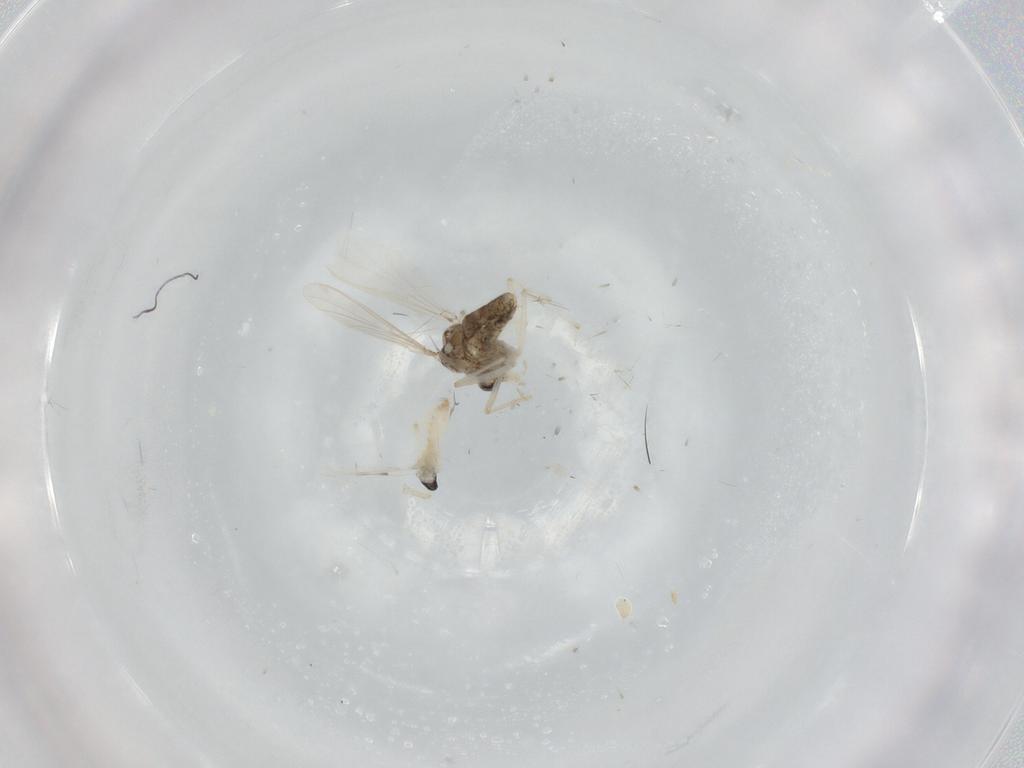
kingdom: Animalia
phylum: Arthropoda
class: Insecta
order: Diptera
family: Cecidomyiidae
